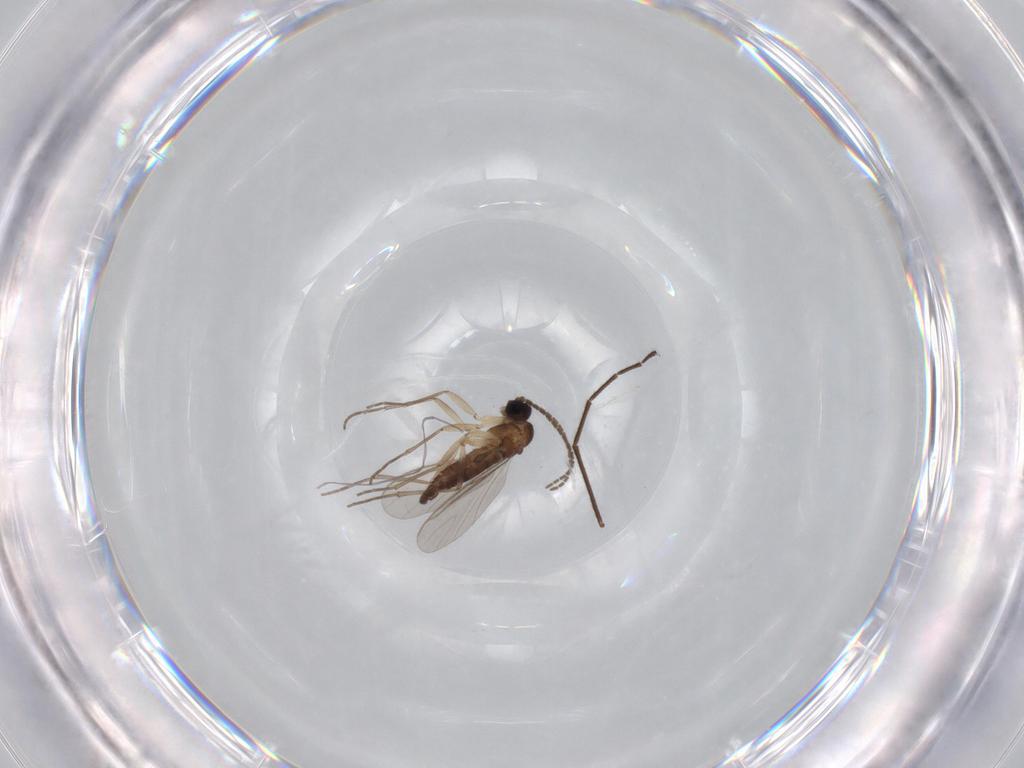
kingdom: Animalia
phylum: Arthropoda
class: Insecta
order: Diptera
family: Sciaridae
